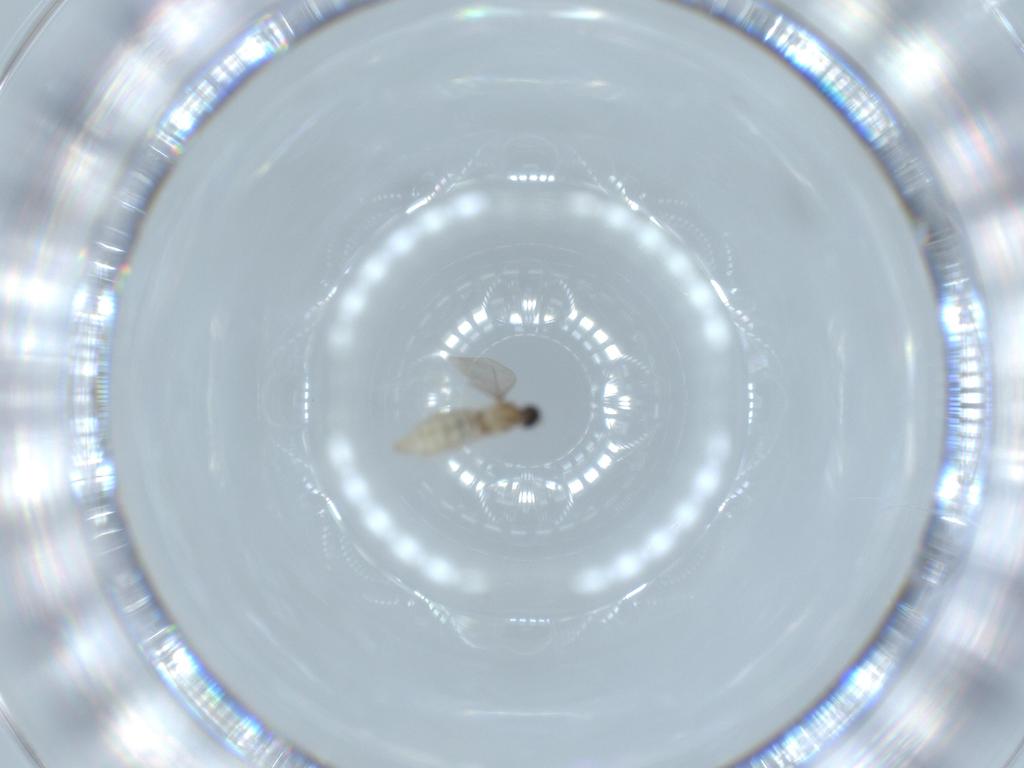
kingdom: Animalia
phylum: Arthropoda
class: Insecta
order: Diptera
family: Cecidomyiidae
